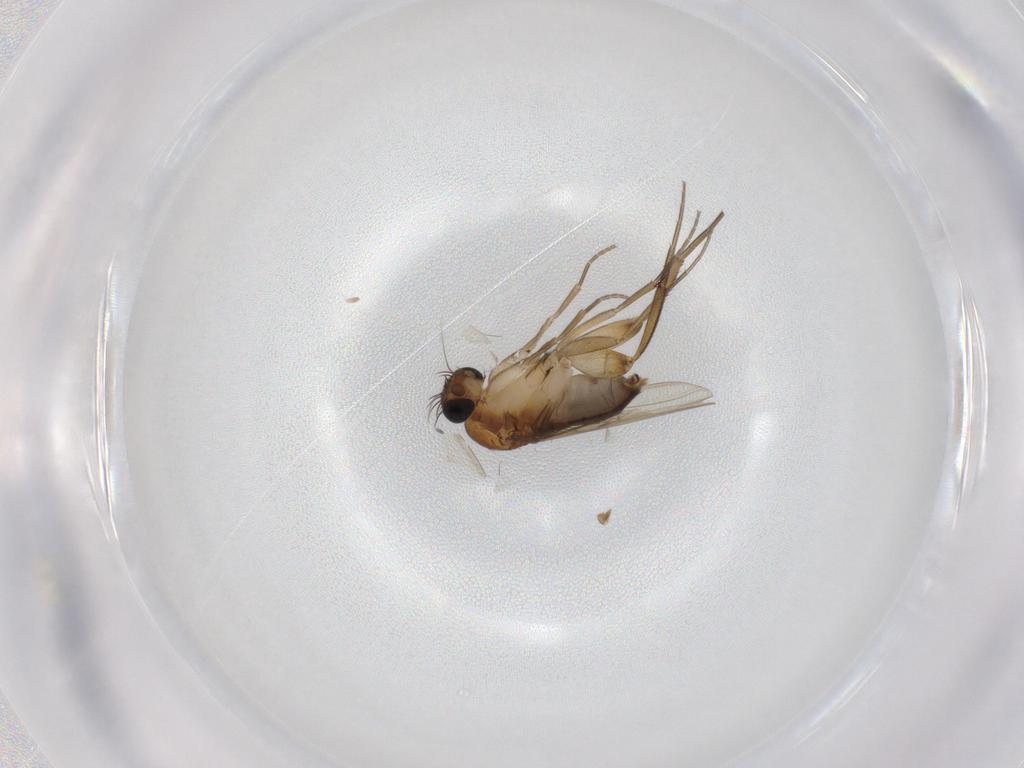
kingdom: Animalia
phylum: Arthropoda
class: Insecta
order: Diptera
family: Phoridae
